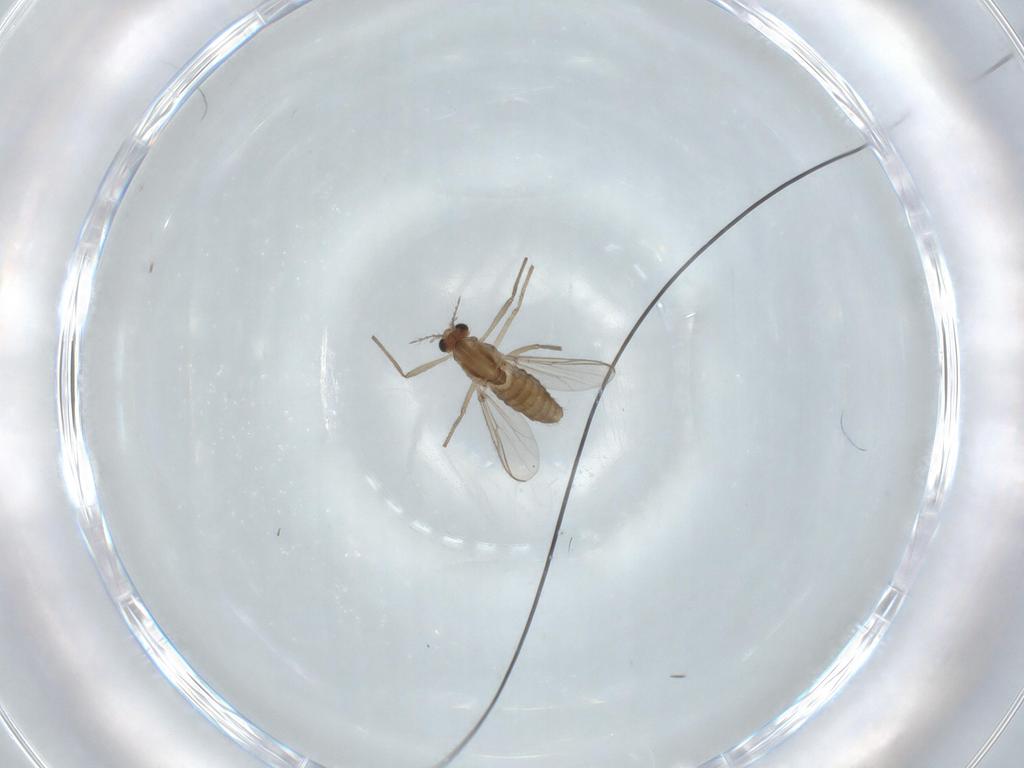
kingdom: Animalia
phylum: Arthropoda
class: Insecta
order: Diptera
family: Chironomidae
